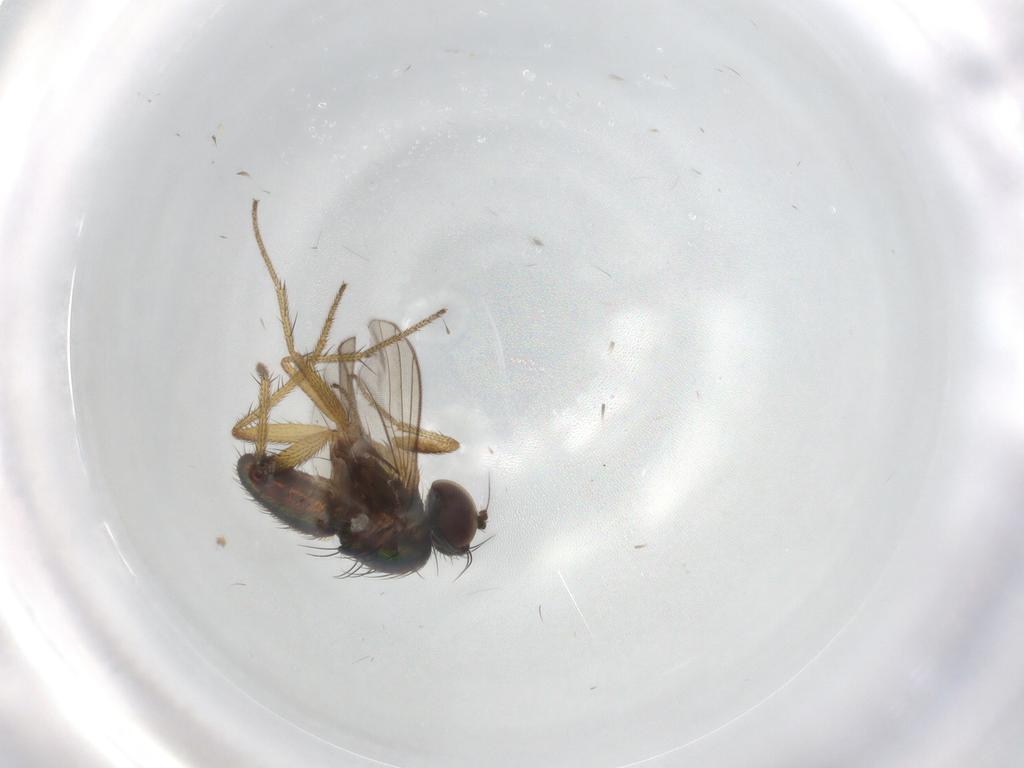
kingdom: Animalia
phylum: Arthropoda
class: Insecta
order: Diptera
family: Dolichopodidae
